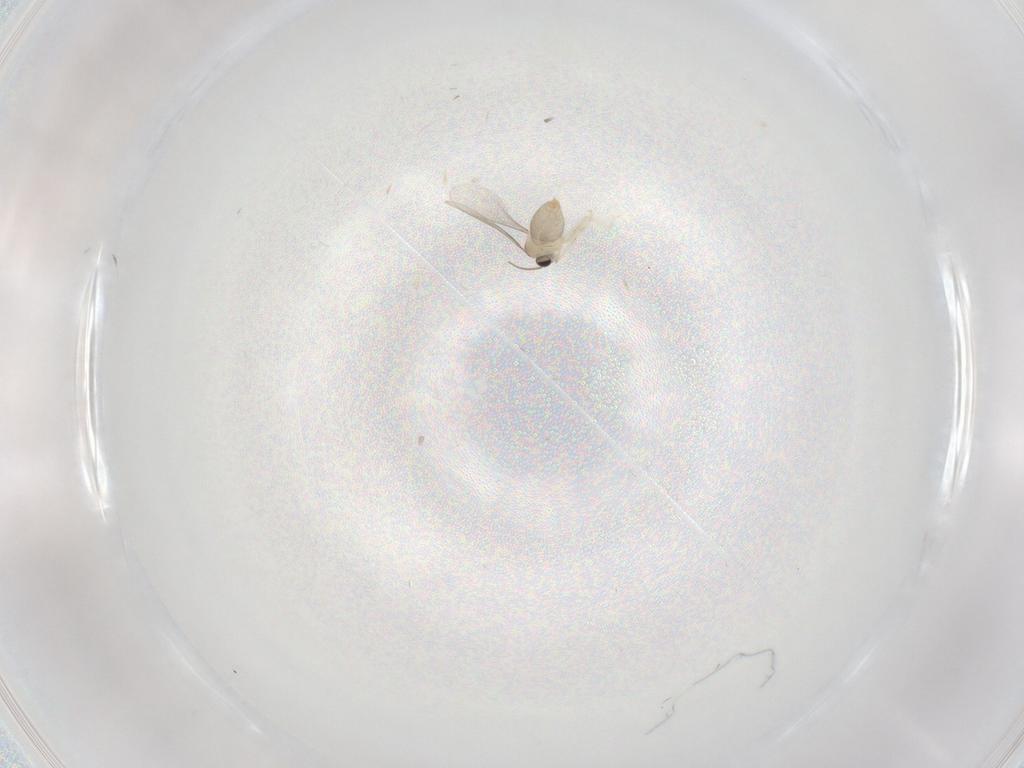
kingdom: Animalia
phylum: Arthropoda
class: Insecta
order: Diptera
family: Cecidomyiidae
